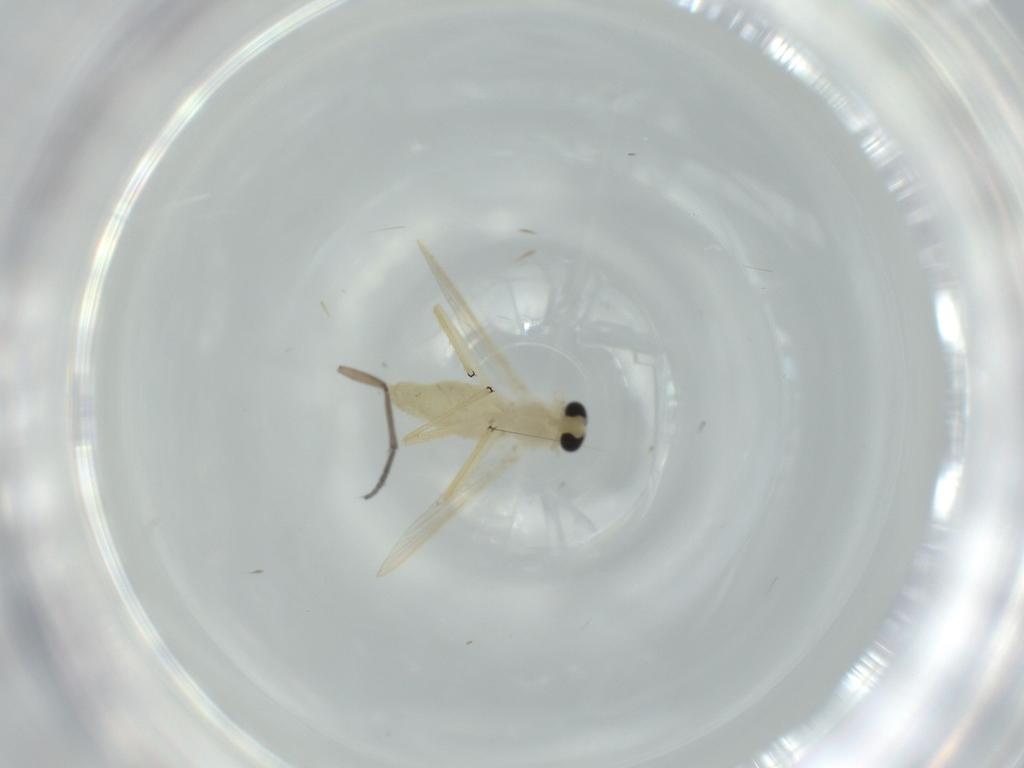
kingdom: Animalia
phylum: Arthropoda
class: Insecta
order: Diptera
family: Chironomidae
